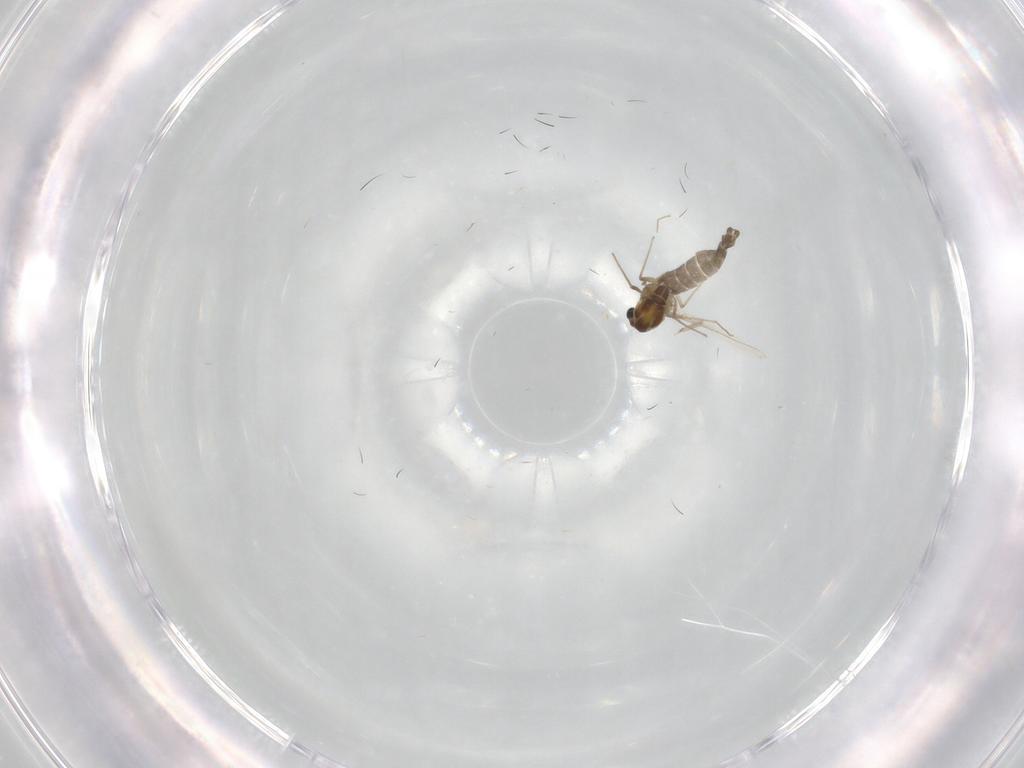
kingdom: Animalia
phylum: Arthropoda
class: Insecta
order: Diptera
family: Chironomidae
